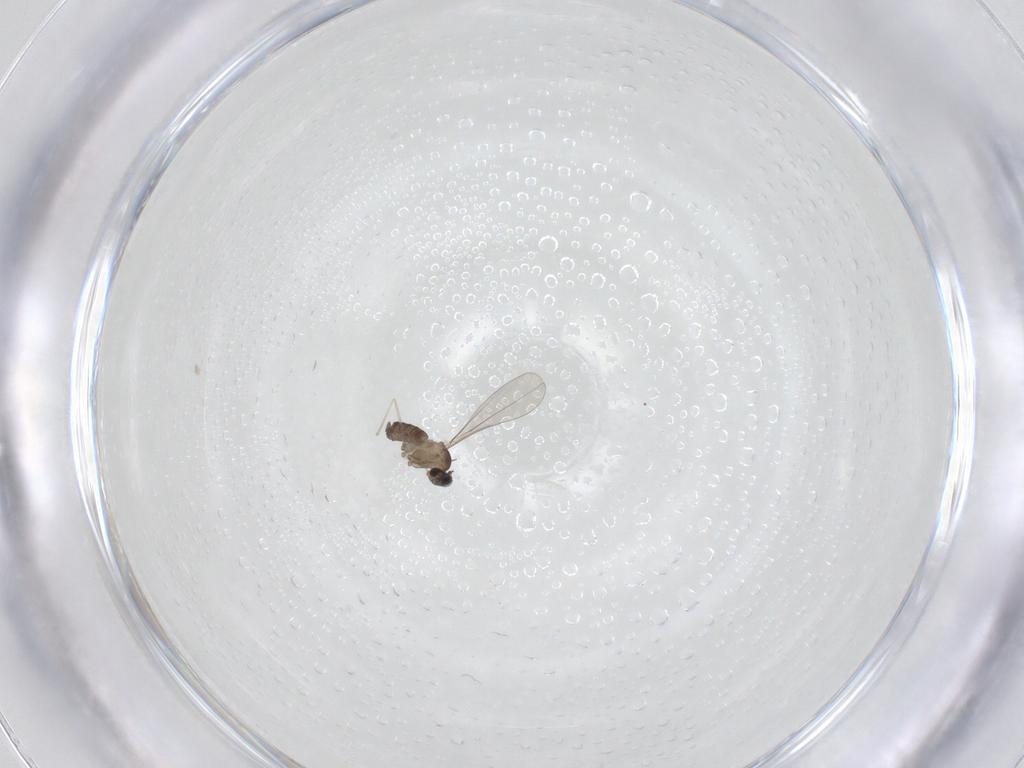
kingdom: Animalia
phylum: Arthropoda
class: Insecta
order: Diptera
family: Cecidomyiidae
